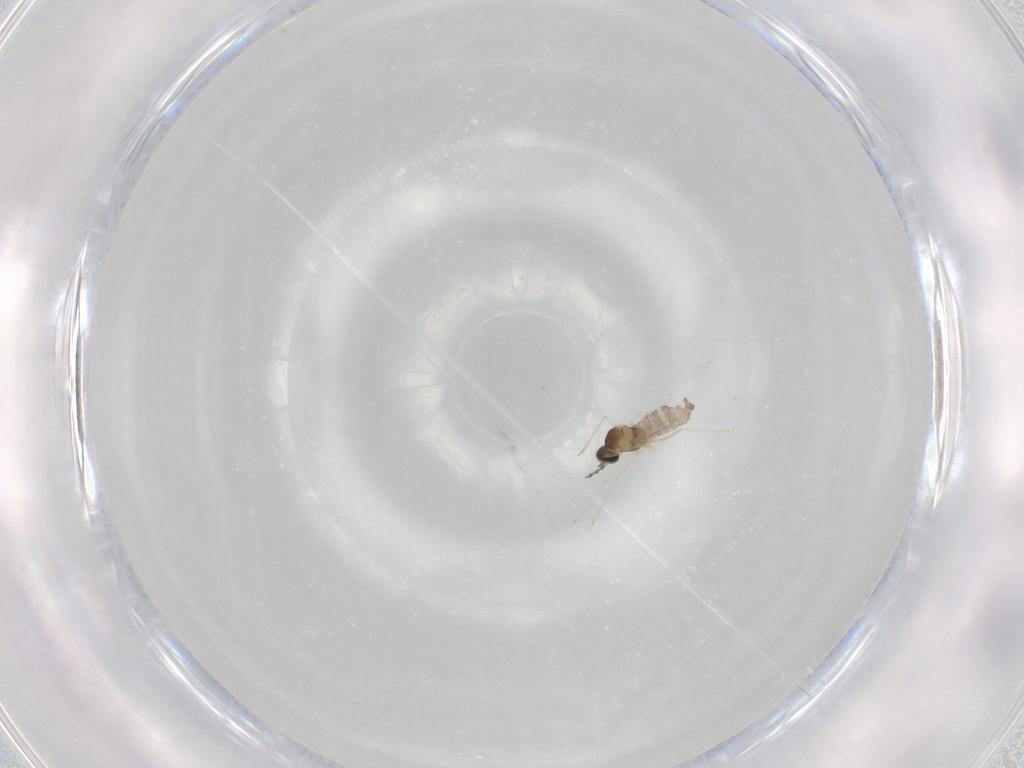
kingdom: Animalia
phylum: Arthropoda
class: Insecta
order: Diptera
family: Cecidomyiidae
